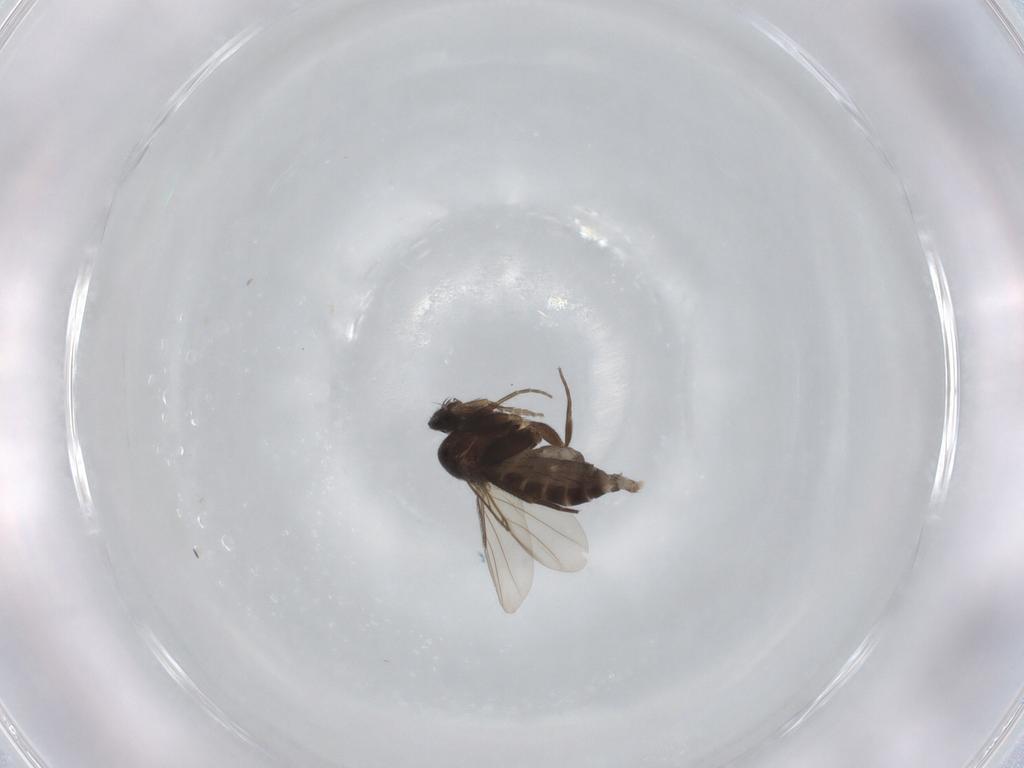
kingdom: Animalia
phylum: Arthropoda
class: Insecta
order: Diptera
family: Phoridae
